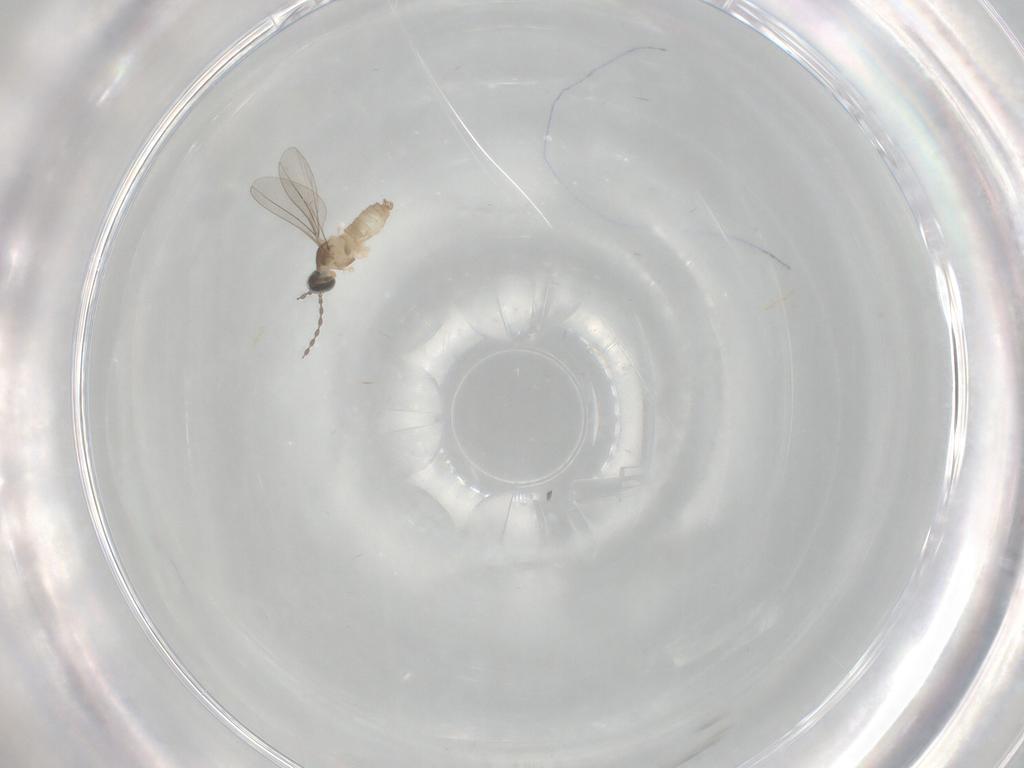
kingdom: Animalia
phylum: Arthropoda
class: Insecta
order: Diptera
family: Cecidomyiidae
